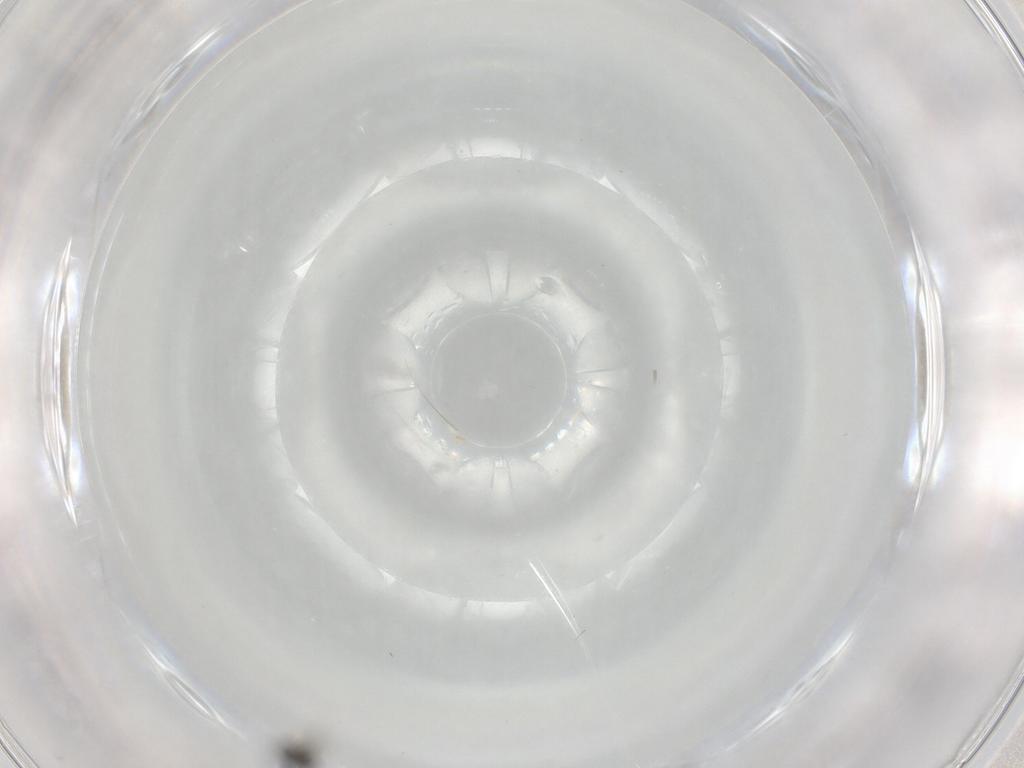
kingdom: Animalia
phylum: Arthropoda
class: Insecta
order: Diptera
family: Chironomidae
